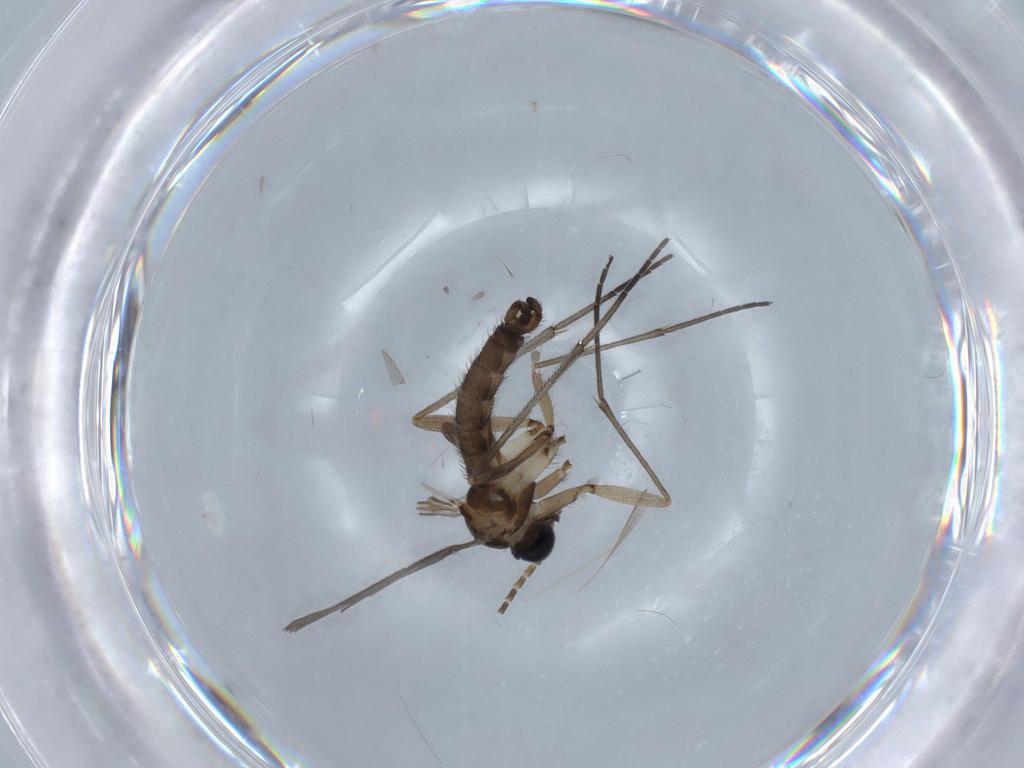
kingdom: Animalia
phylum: Arthropoda
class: Insecta
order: Diptera
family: Sciaridae
